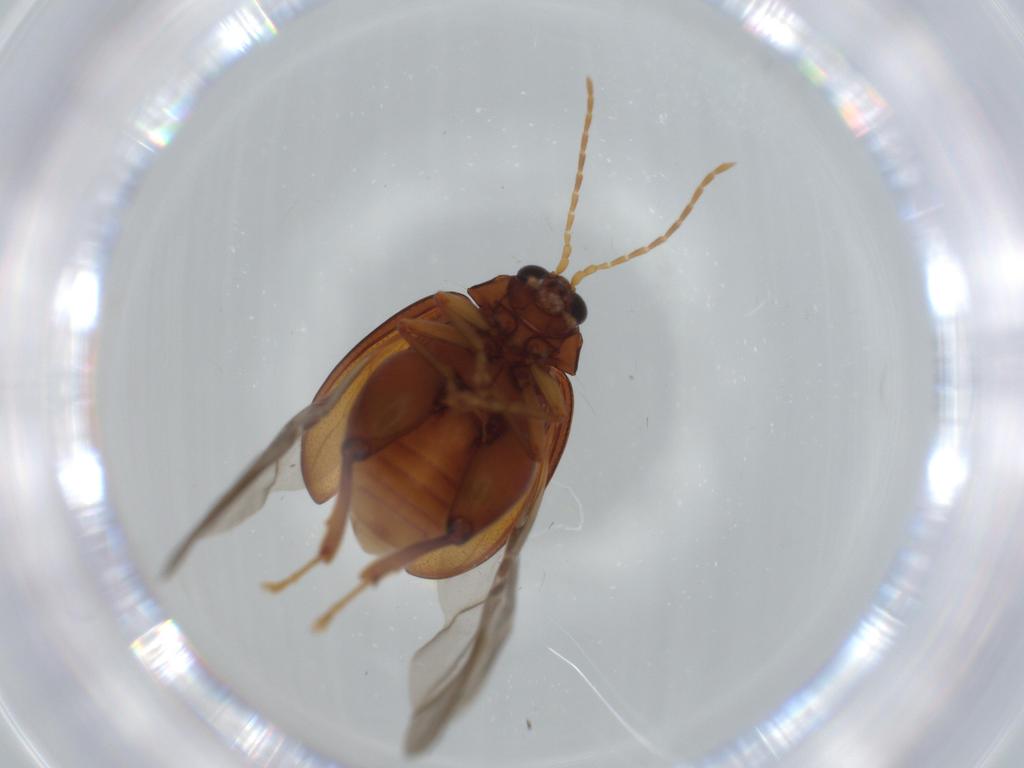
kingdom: Animalia
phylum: Arthropoda
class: Insecta
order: Coleoptera
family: Chrysomelidae
